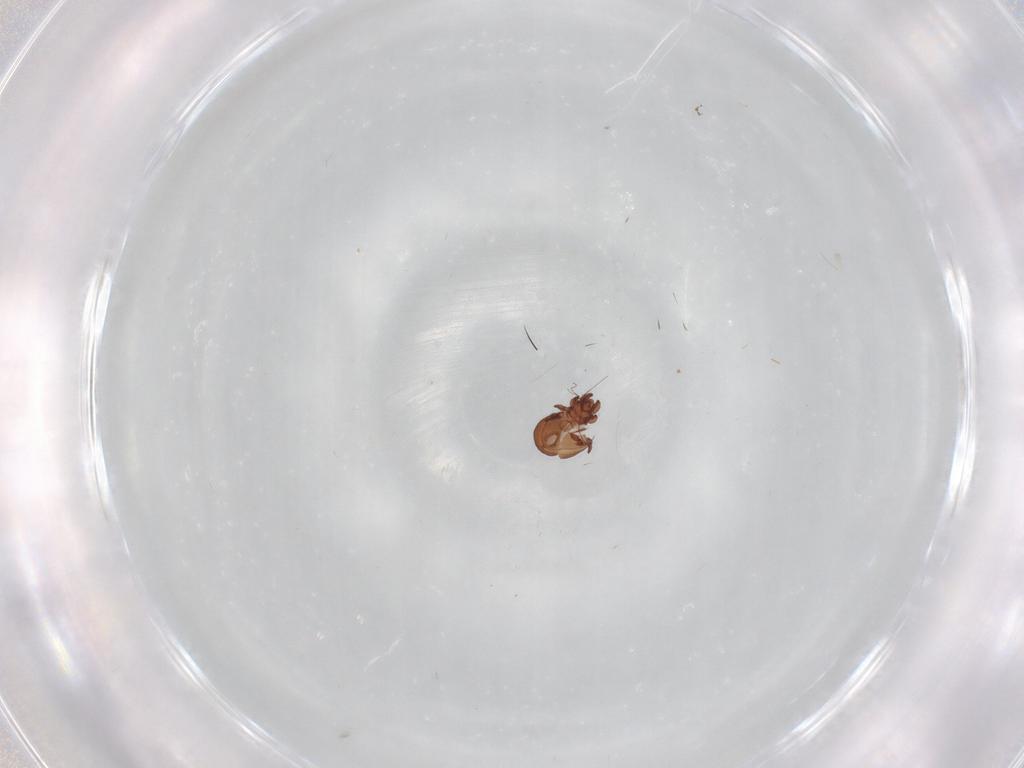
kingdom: Animalia
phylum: Arthropoda
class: Arachnida
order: Sarcoptiformes
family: Eremaeidae
